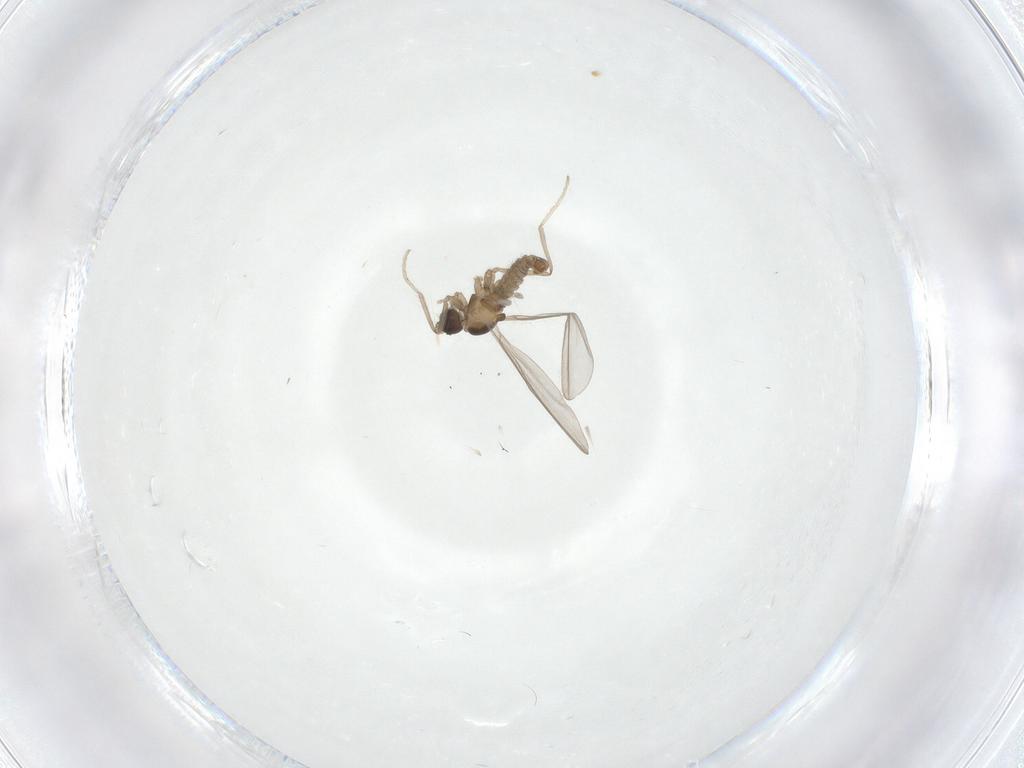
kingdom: Animalia
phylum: Arthropoda
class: Insecta
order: Diptera
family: Cecidomyiidae
